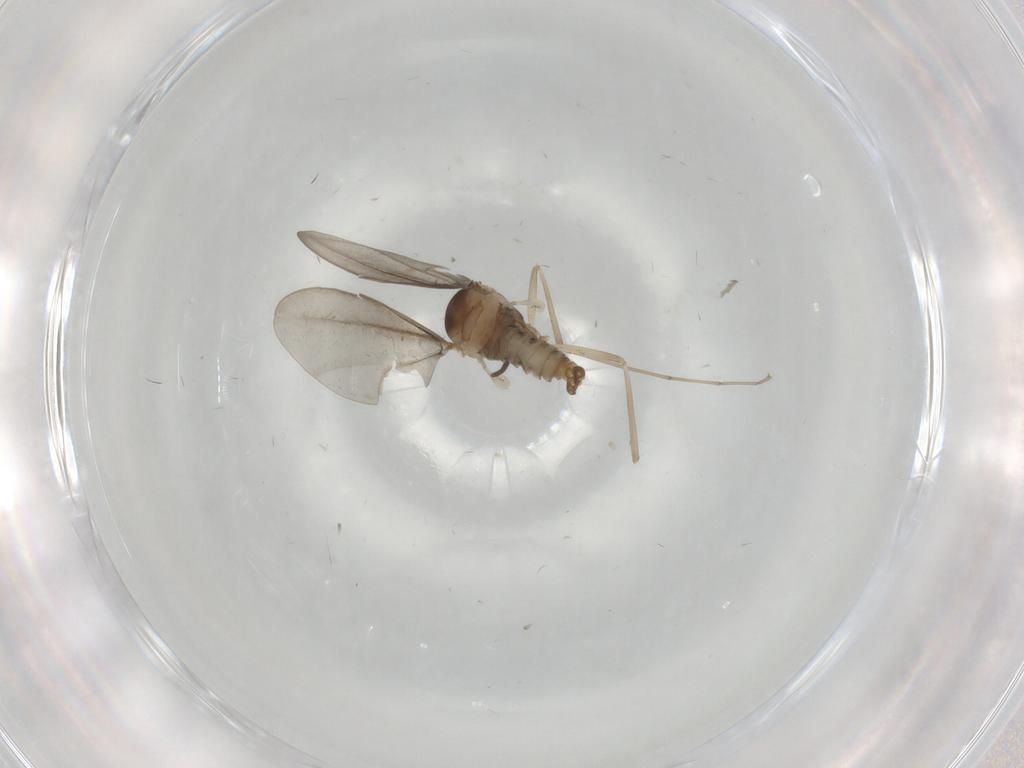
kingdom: Animalia
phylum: Arthropoda
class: Insecta
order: Diptera
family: Cecidomyiidae
